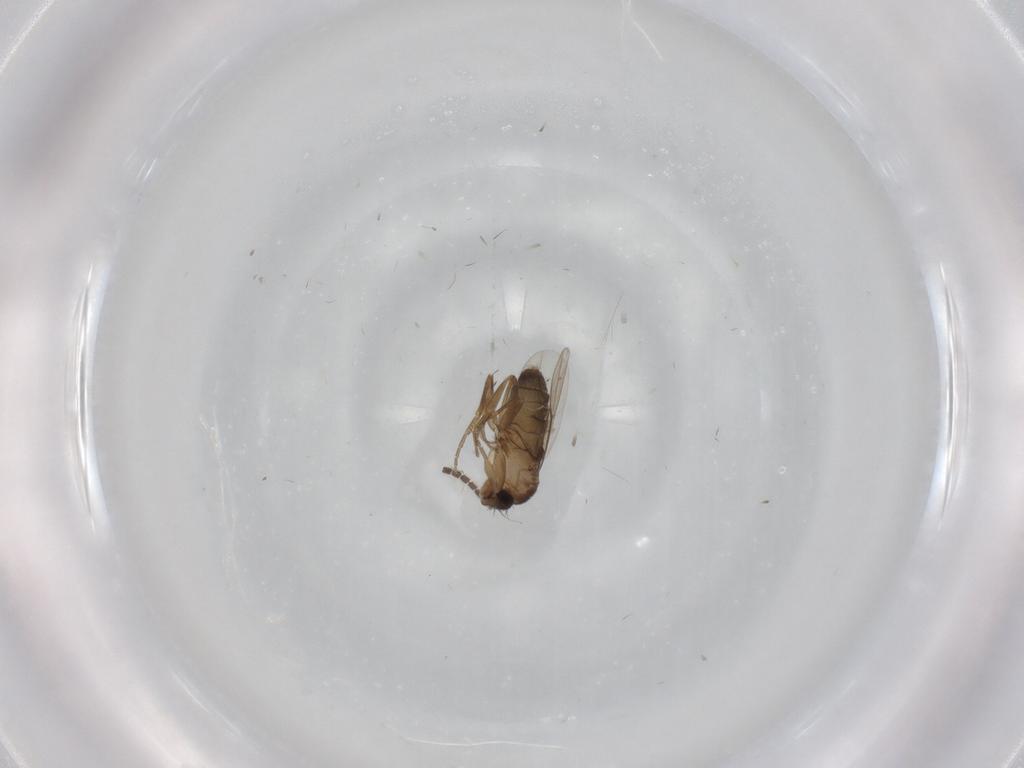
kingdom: Animalia
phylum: Arthropoda
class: Insecta
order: Diptera
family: Phoridae
